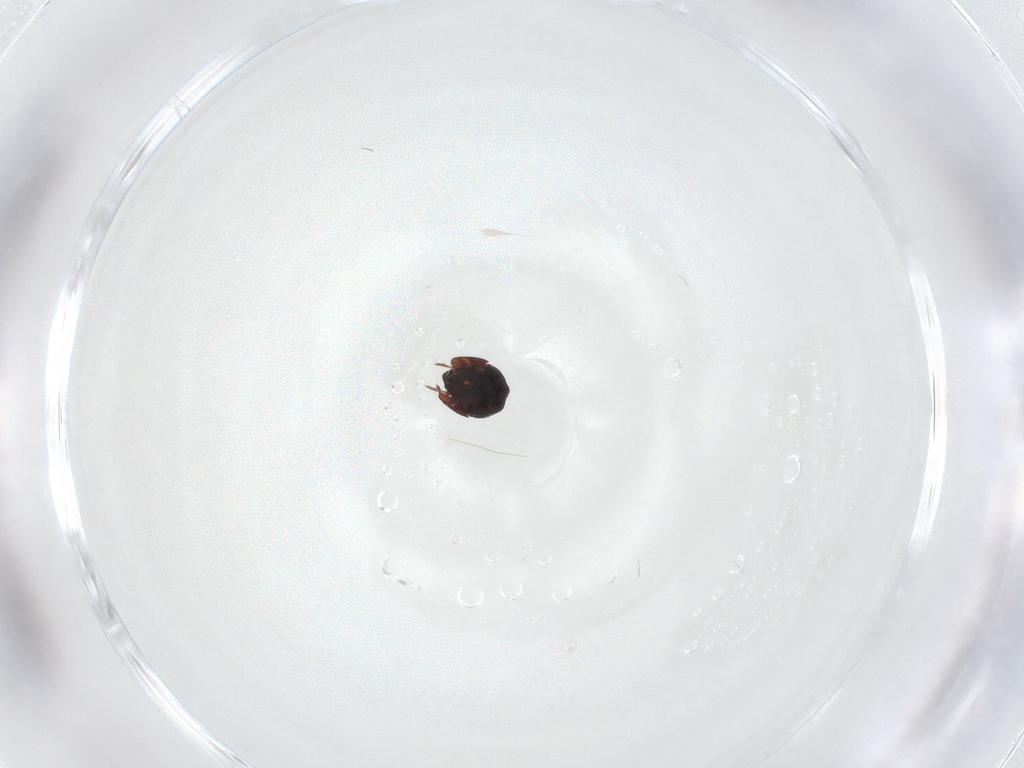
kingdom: Animalia
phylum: Arthropoda
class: Arachnida
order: Sarcoptiformes
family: Galumnidae
